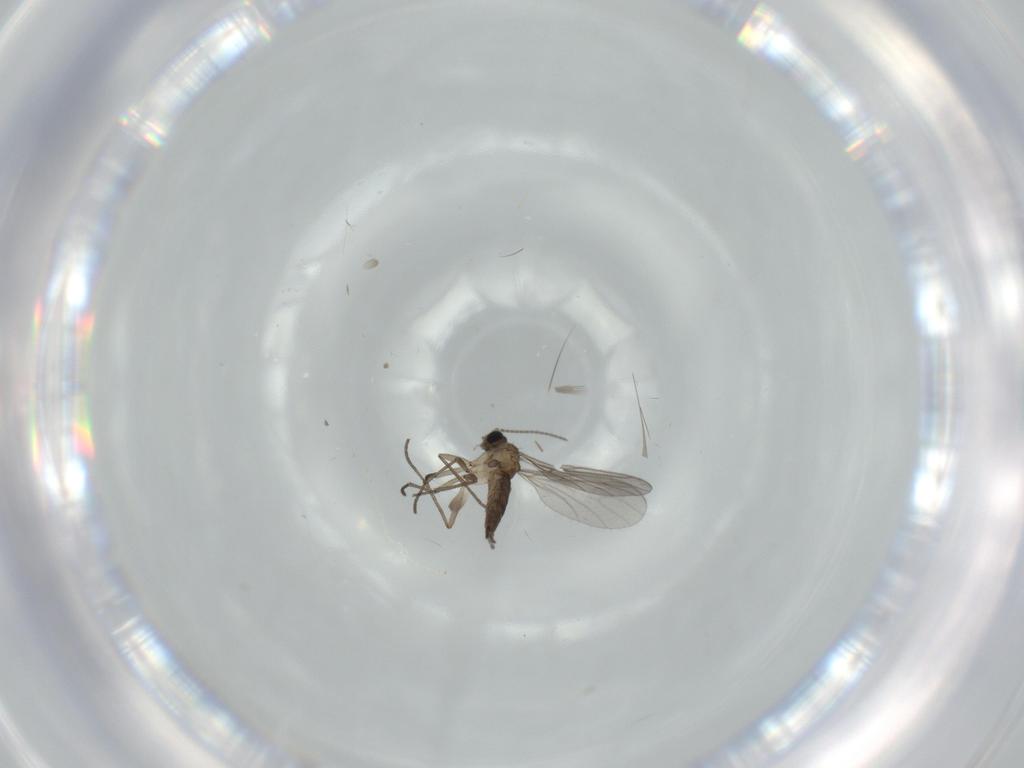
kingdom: Animalia
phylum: Arthropoda
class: Insecta
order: Diptera
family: Sciaridae
